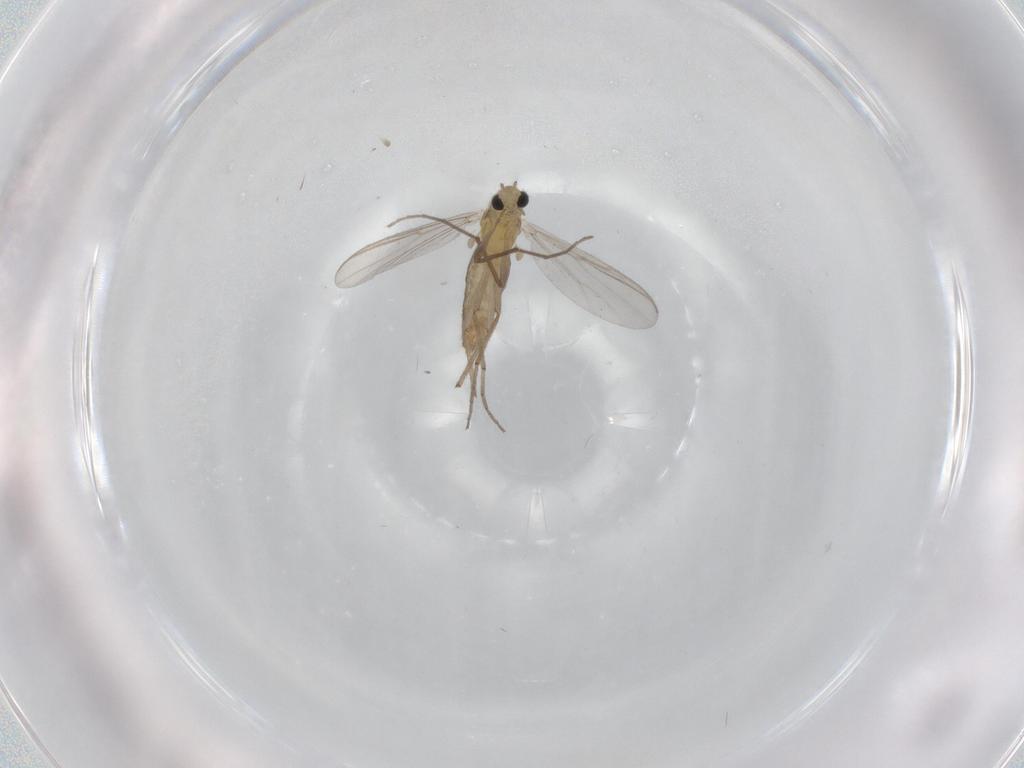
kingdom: Animalia
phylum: Arthropoda
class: Insecta
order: Diptera
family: Chironomidae
